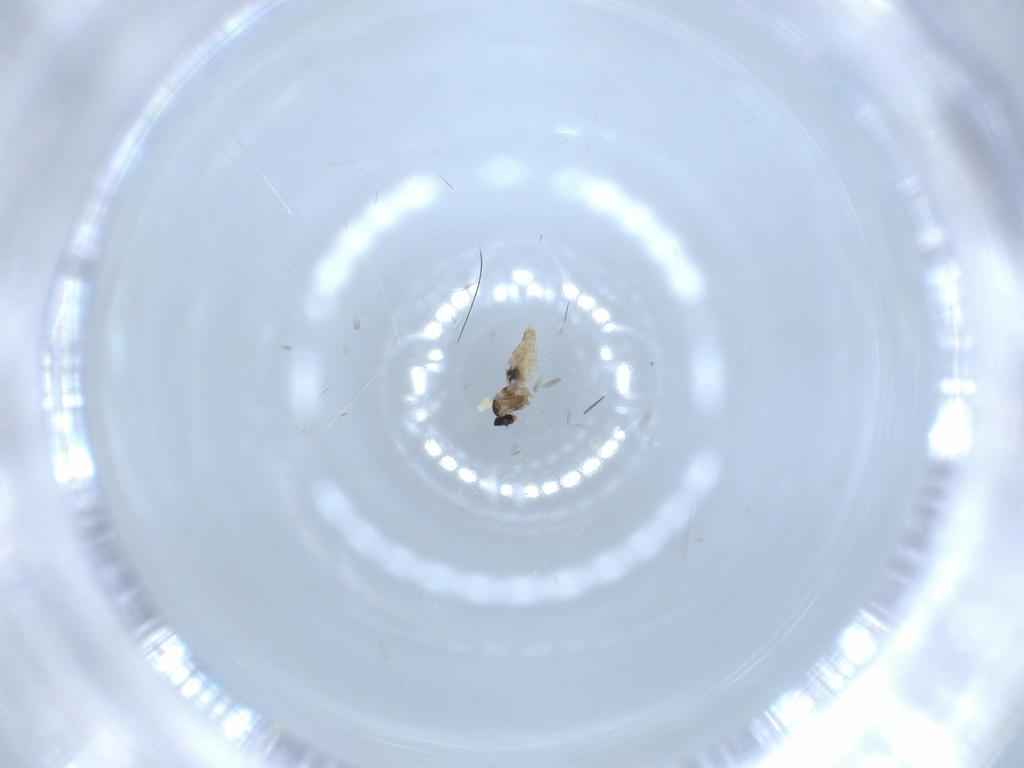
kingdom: Animalia
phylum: Arthropoda
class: Insecta
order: Diptera
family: Cecidomyiidae
